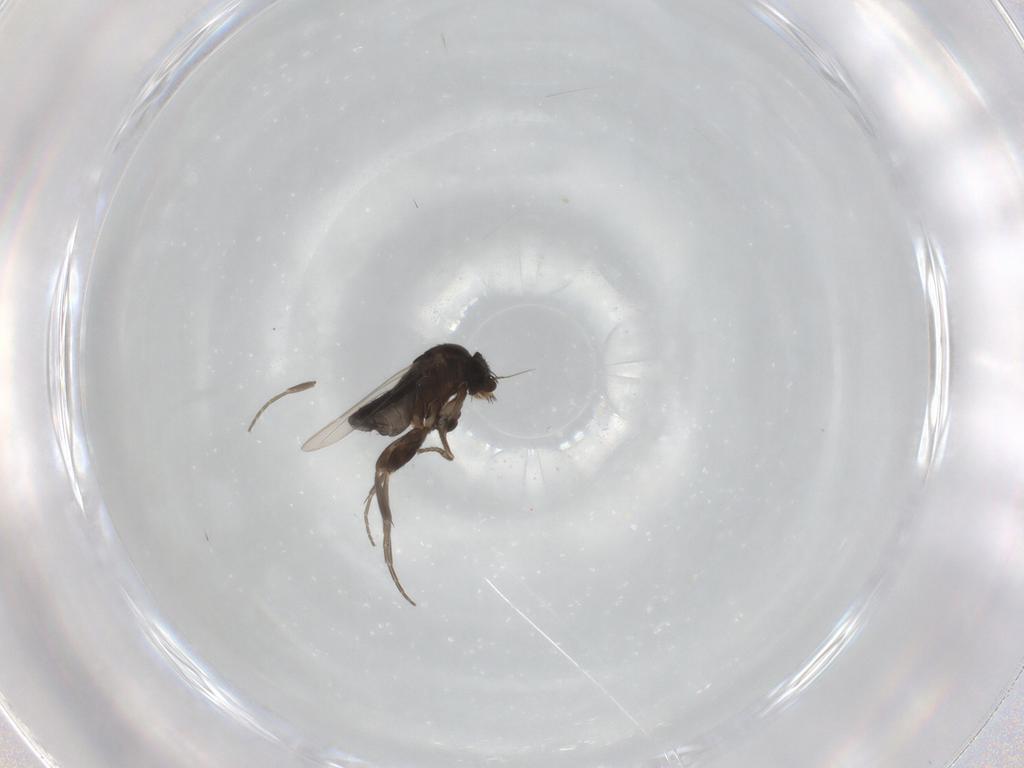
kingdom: Animalia
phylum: Arthropoda
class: Insecta
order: Diptera
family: Phoridae
